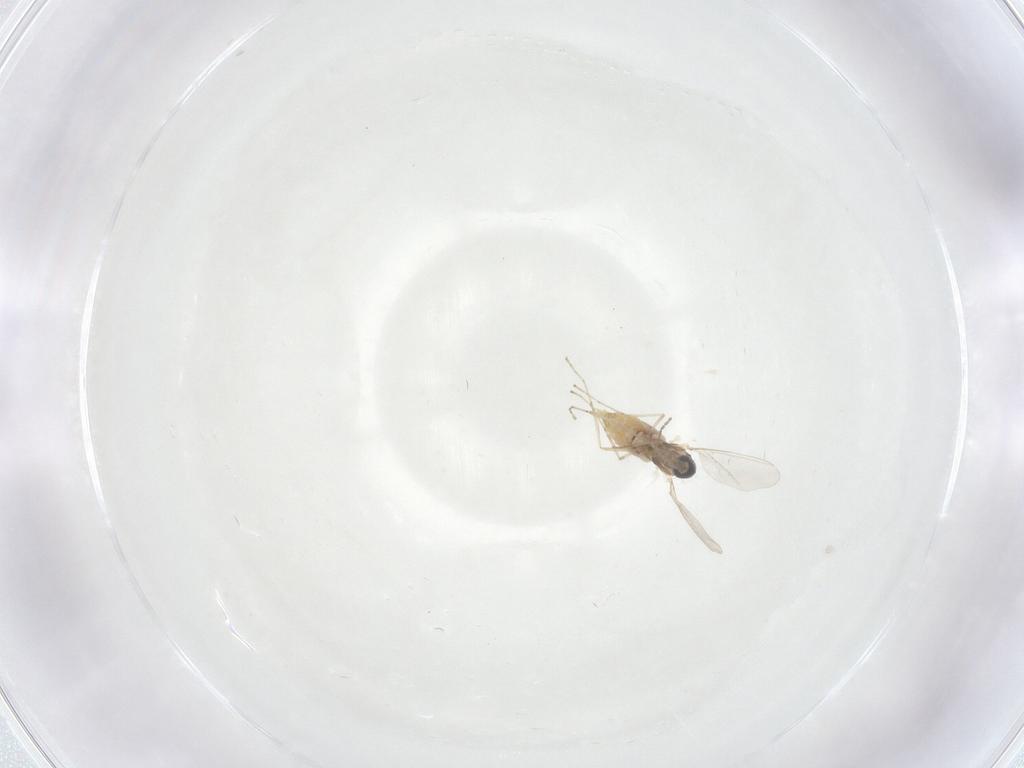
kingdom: Animalia
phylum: Arthropoda
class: Insecta
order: Diptera
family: Cecidomyiidae
